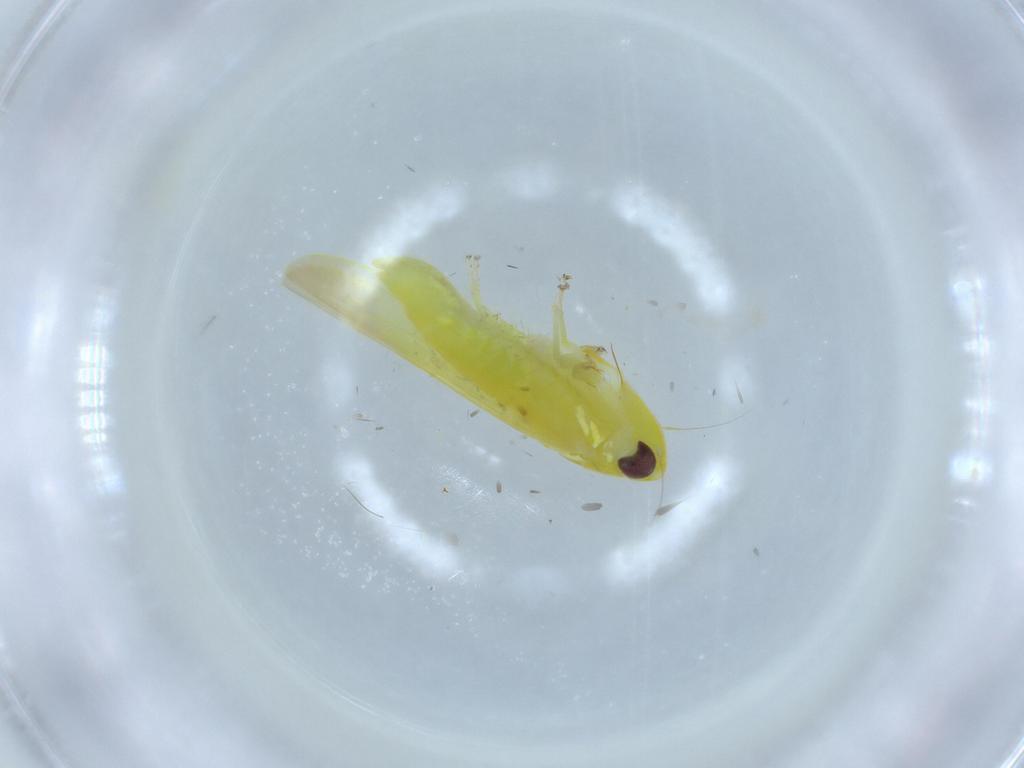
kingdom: Animalia
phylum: Arthropoda
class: Insecta
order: Hemiptera
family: Cicadellidae
